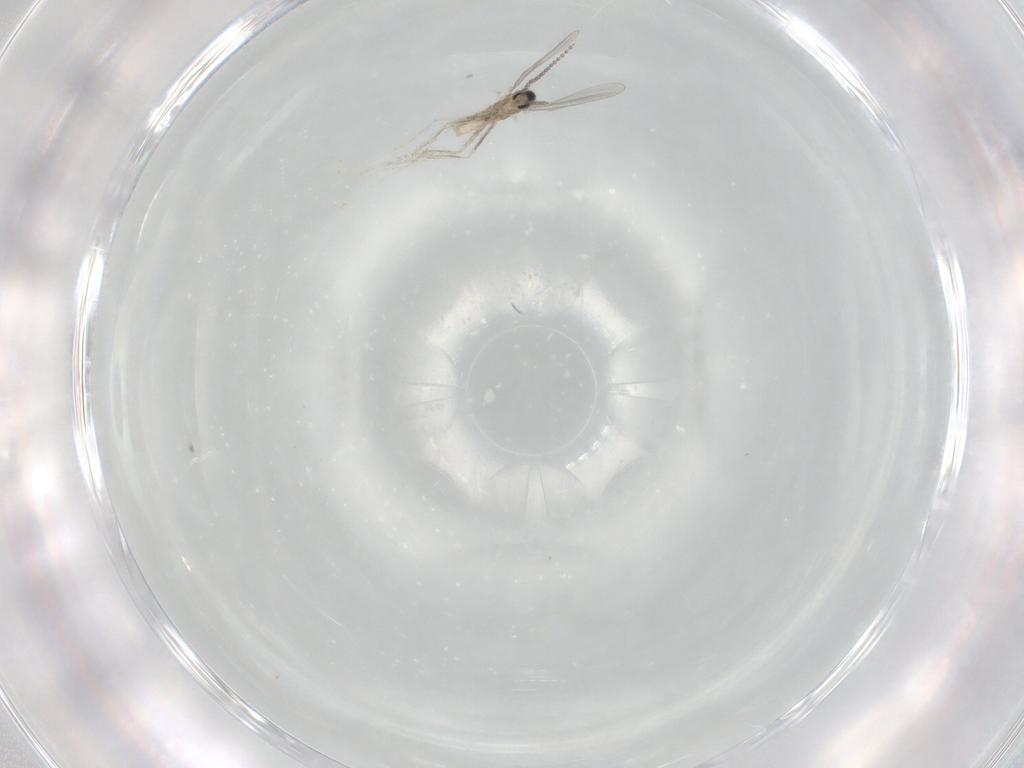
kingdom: Animalia
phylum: Arthropoda
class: Insecta
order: Diptera
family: Cecidomyiidae
